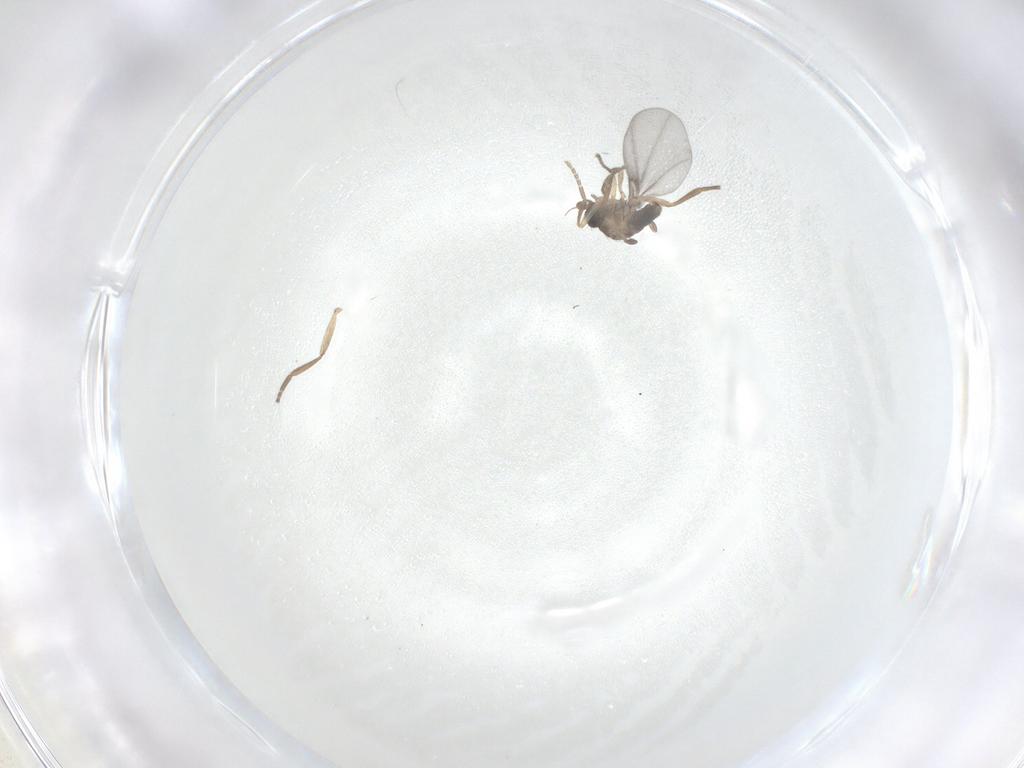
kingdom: Animalia
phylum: Arthropoda
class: Insecta
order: Diptera
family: Phoridae
